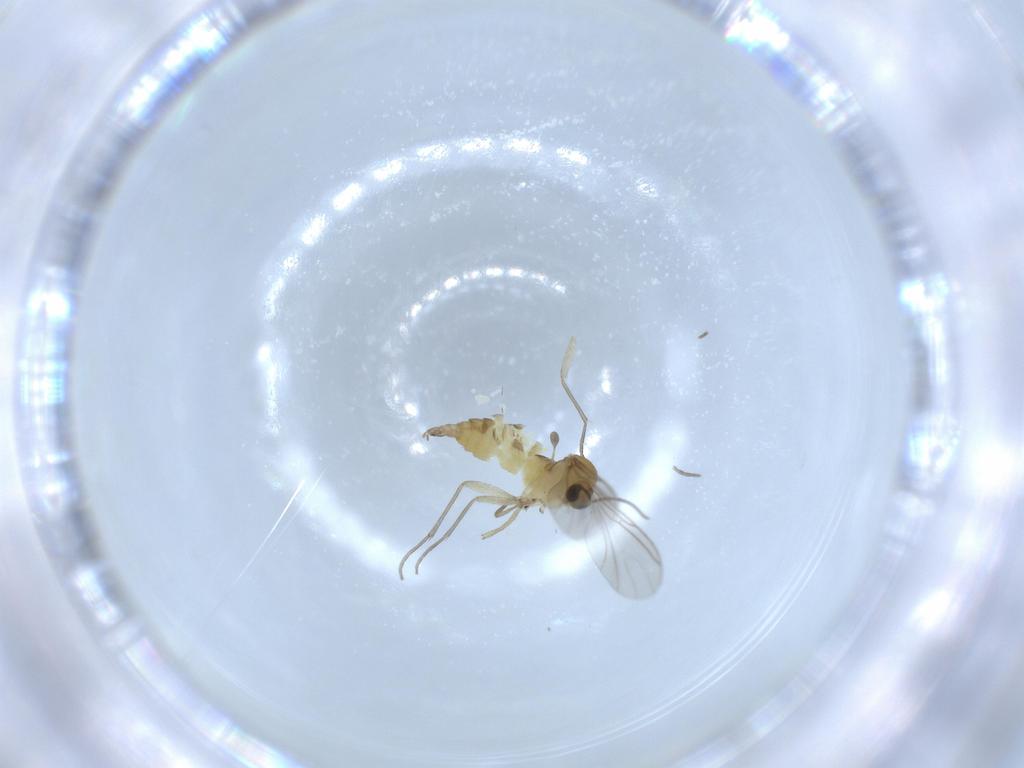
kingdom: Animalia
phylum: Arthropoda
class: Insecta
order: Diptera
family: Sciaridae
